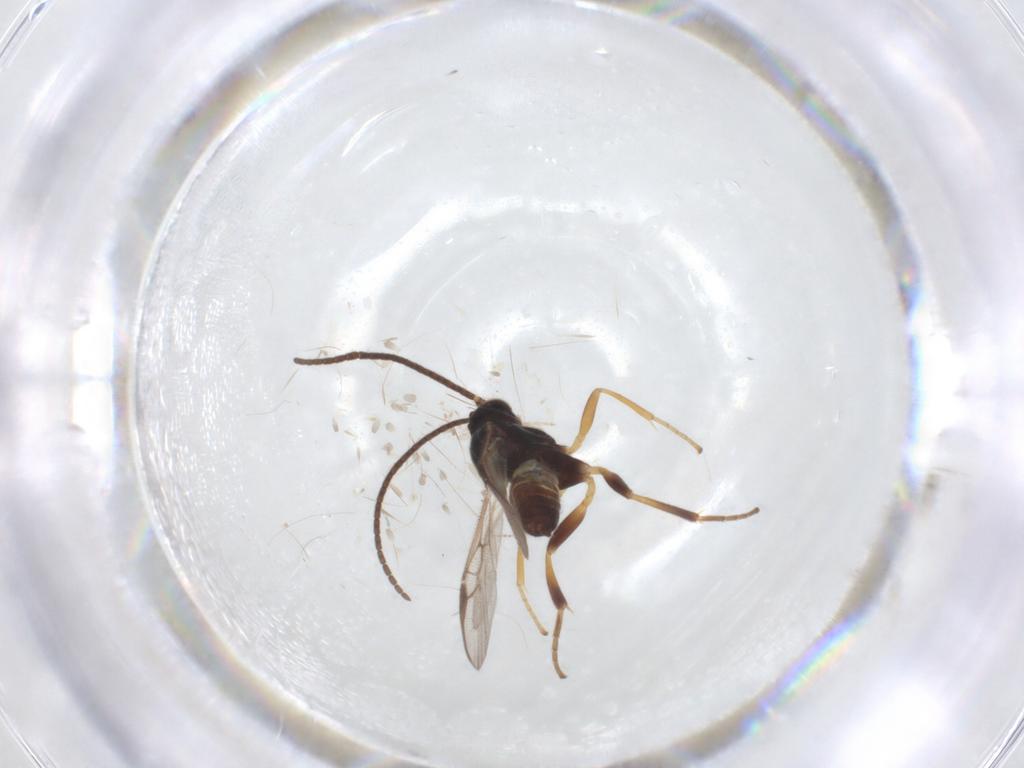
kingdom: Animalia
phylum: Arthropoda
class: Insecta
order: Hymenoptera
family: Braconidae
